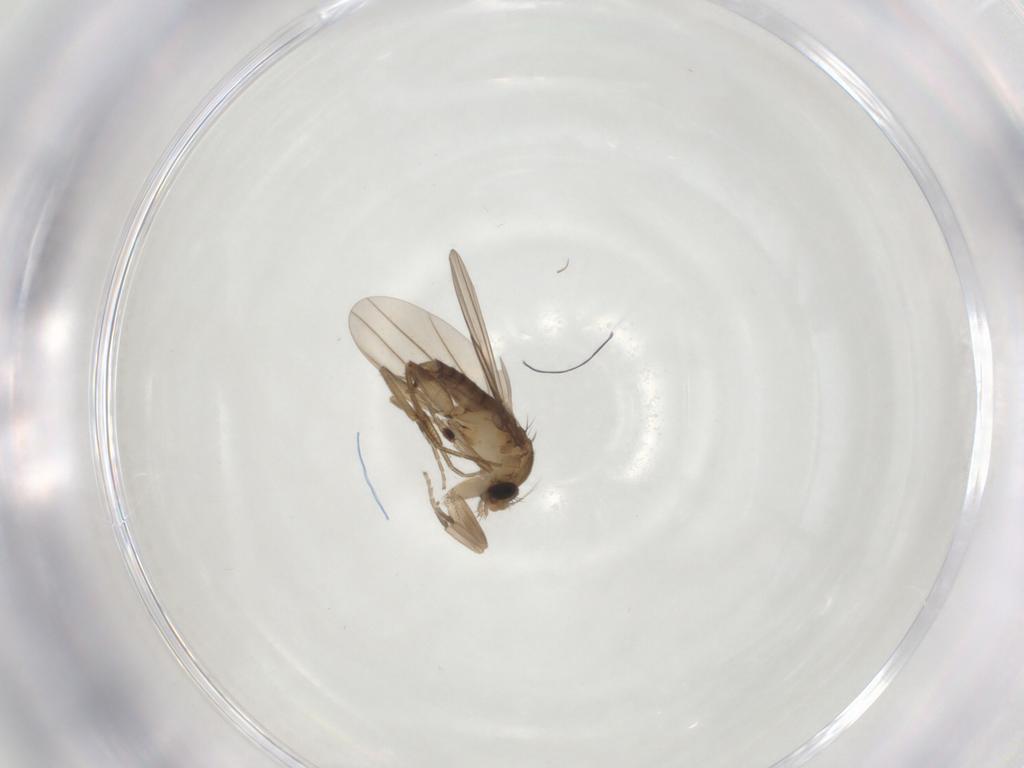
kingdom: Animalia
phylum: Arthropoda
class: Insecta
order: Diptera
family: Phoridae
